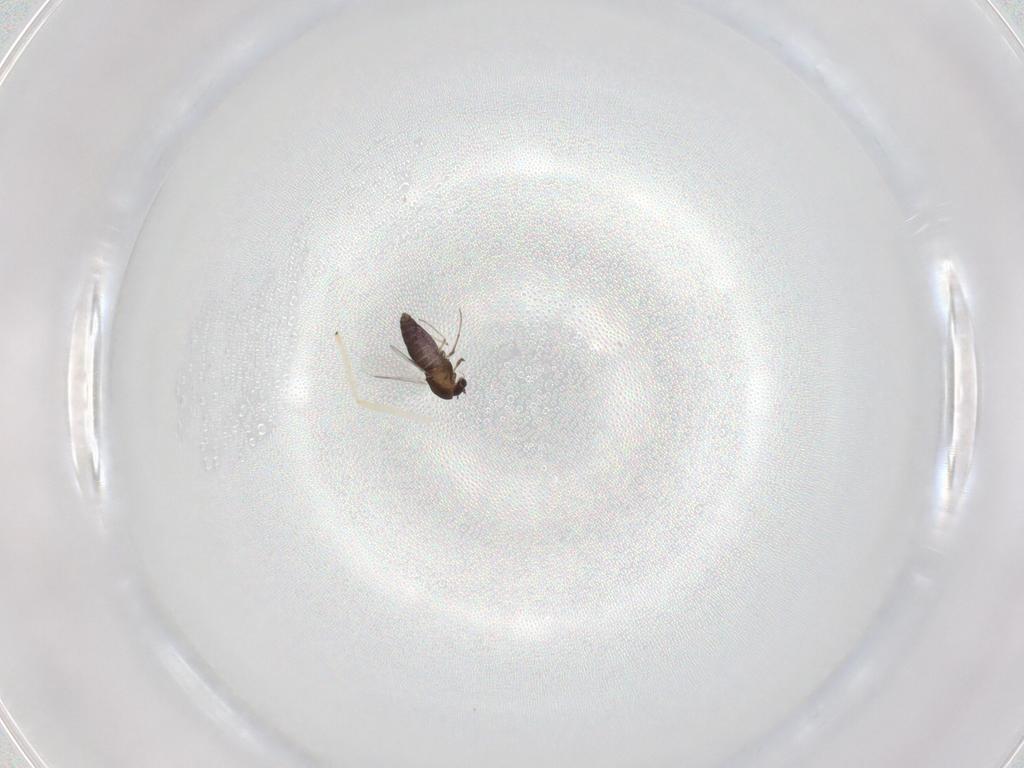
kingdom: Animalia
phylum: Arthropoda
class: Insecta
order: Diptera
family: Chironomidae
